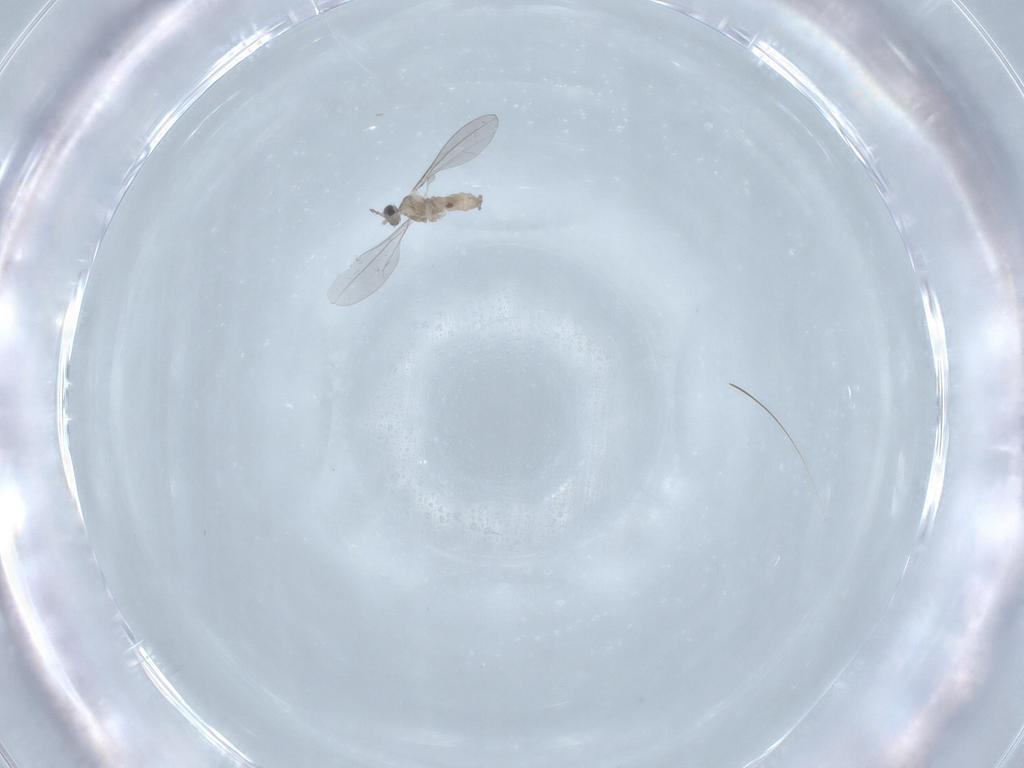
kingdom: Animalia
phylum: Arthropoda
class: Insecta
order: Diptera
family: Cecidomyiidae
